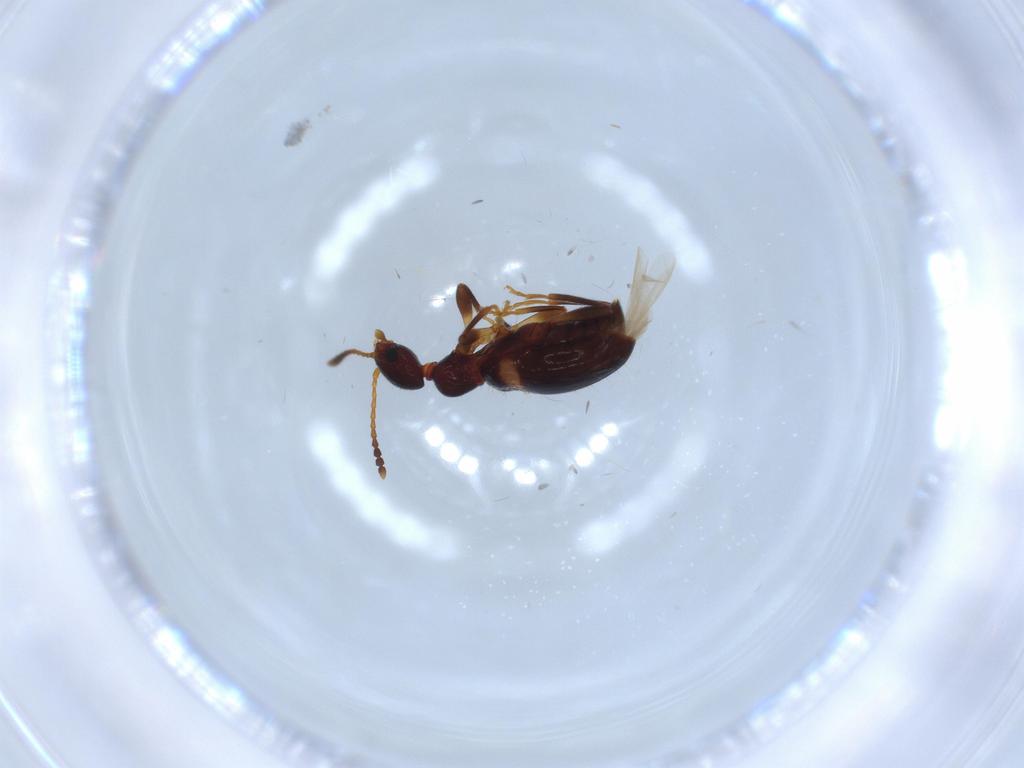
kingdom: Animalia
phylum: Arthropoda
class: Insecta
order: Coleoptera
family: Anthicidae
